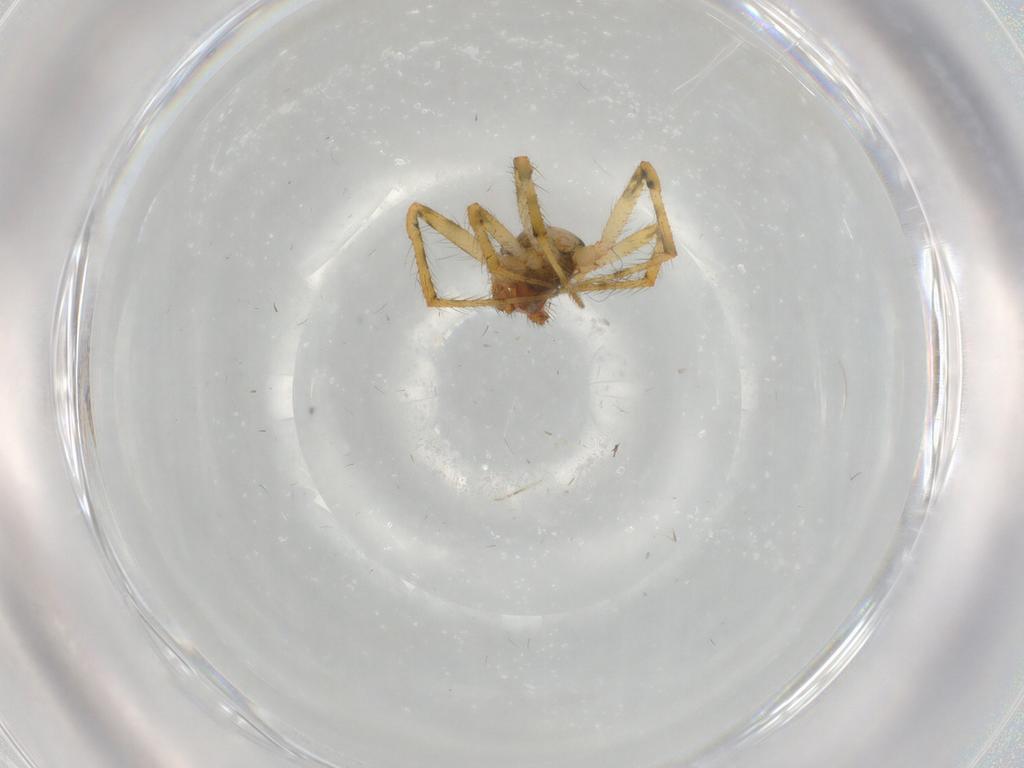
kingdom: Animalia
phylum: Arthropoda
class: Arachnida
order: Araneae
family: Theridiidae
